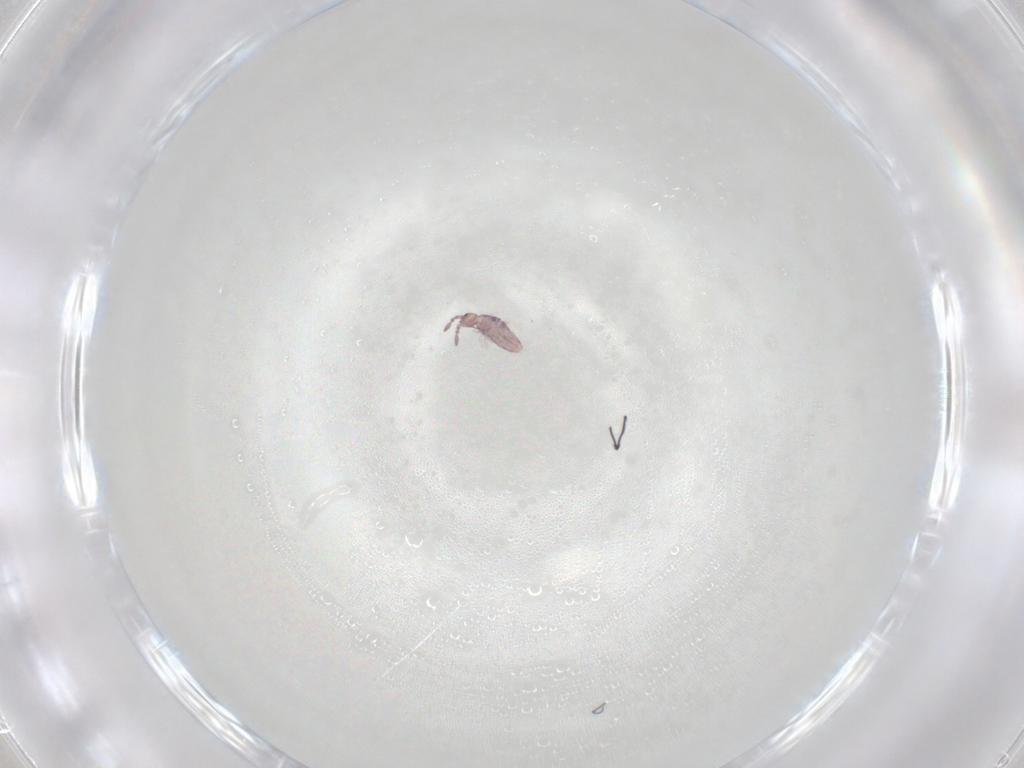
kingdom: Animalia
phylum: Arthropoda
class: Collembola
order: Entomobryomorpha
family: Entomobryidae
